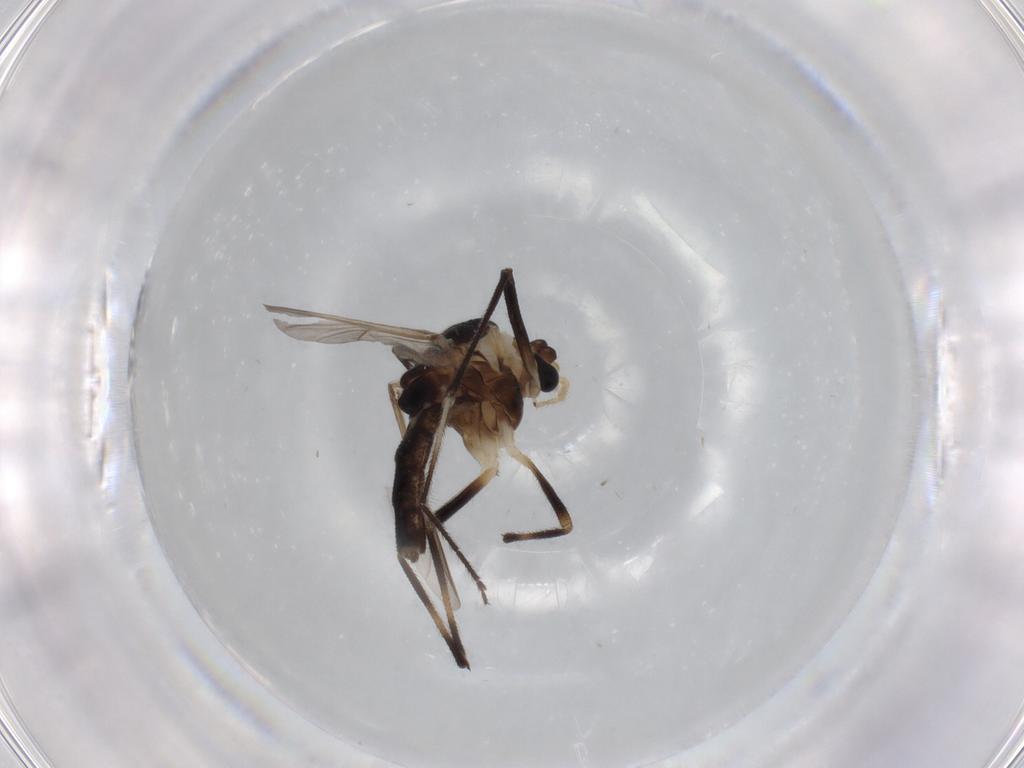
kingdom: Animalia
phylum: Arthropoda
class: Insecta
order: Diptera
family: Chironomidae
